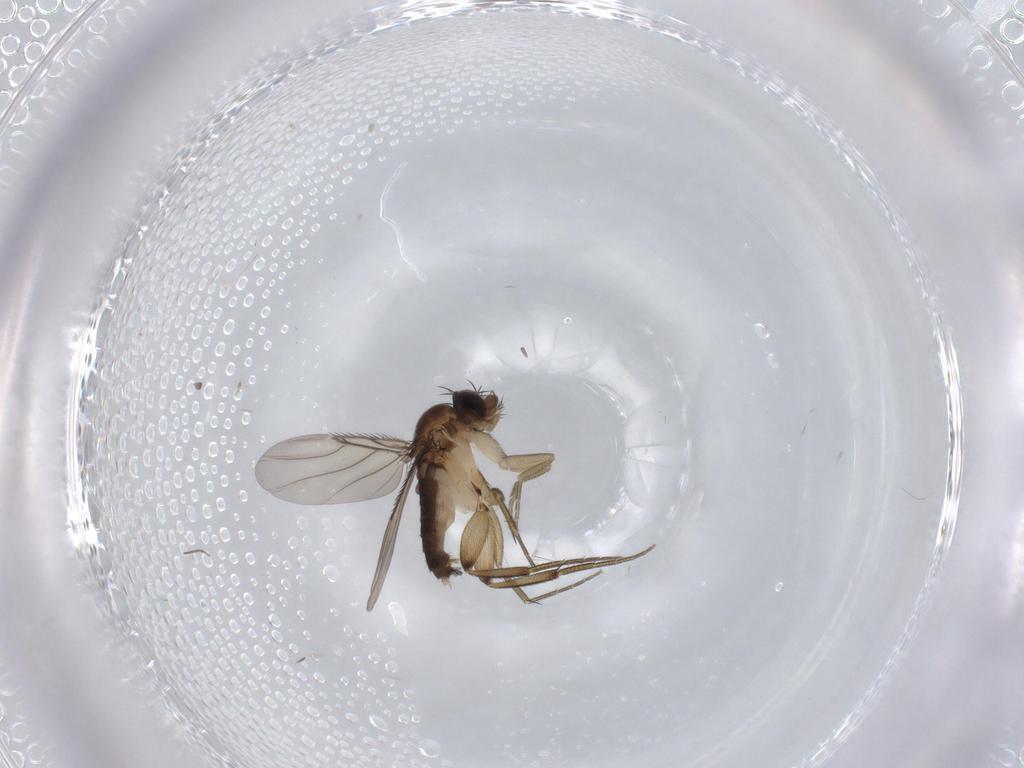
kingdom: Animalia
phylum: Arthropoda
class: Insecta
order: Diptera
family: Phoridae
